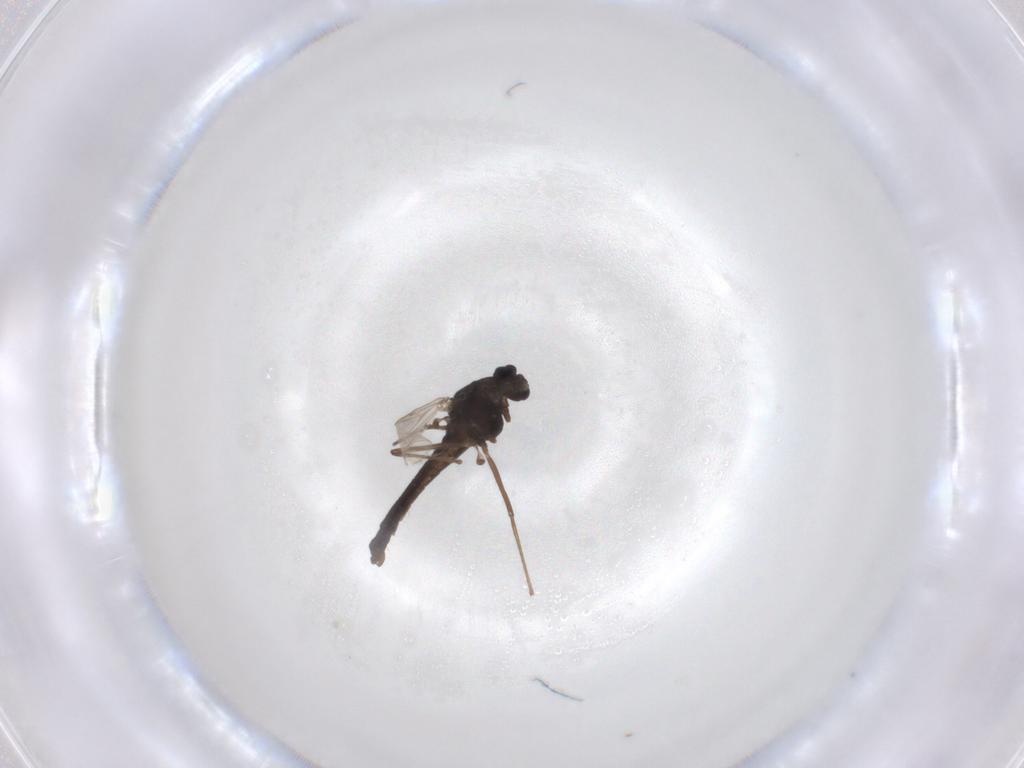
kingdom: Animalia
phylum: Arthropoda
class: Insecta
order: Diptera
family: Chironomidae
